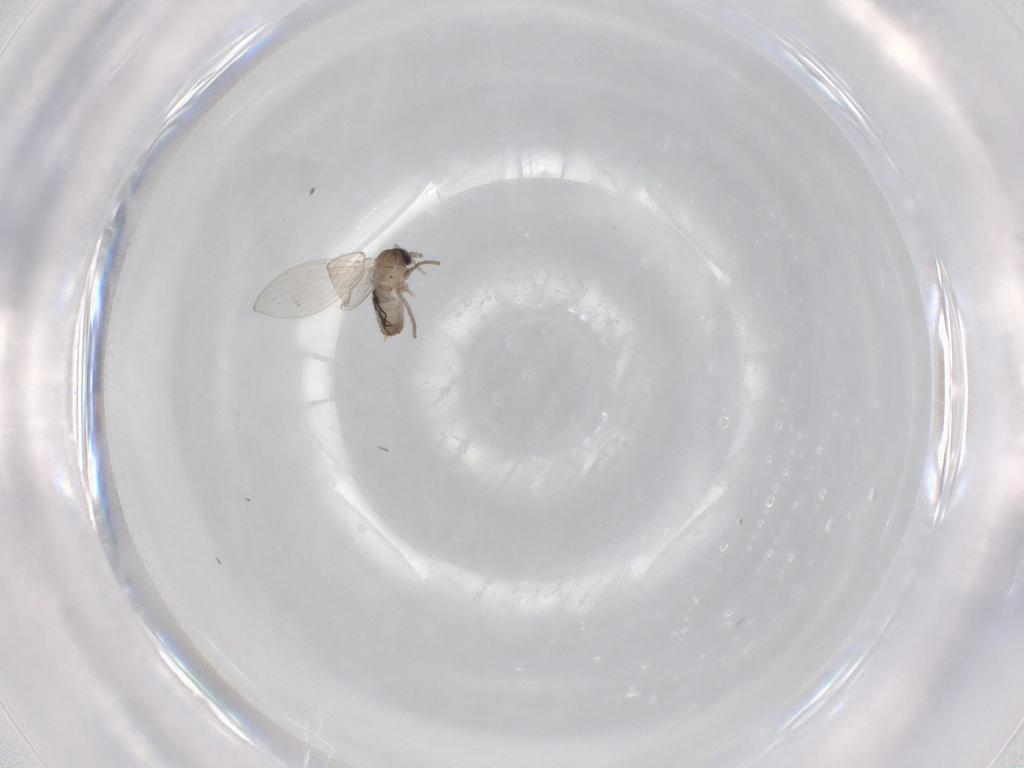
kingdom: Animalia
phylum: Arthropoda
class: Insecta
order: Diptera
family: Psychodidae
